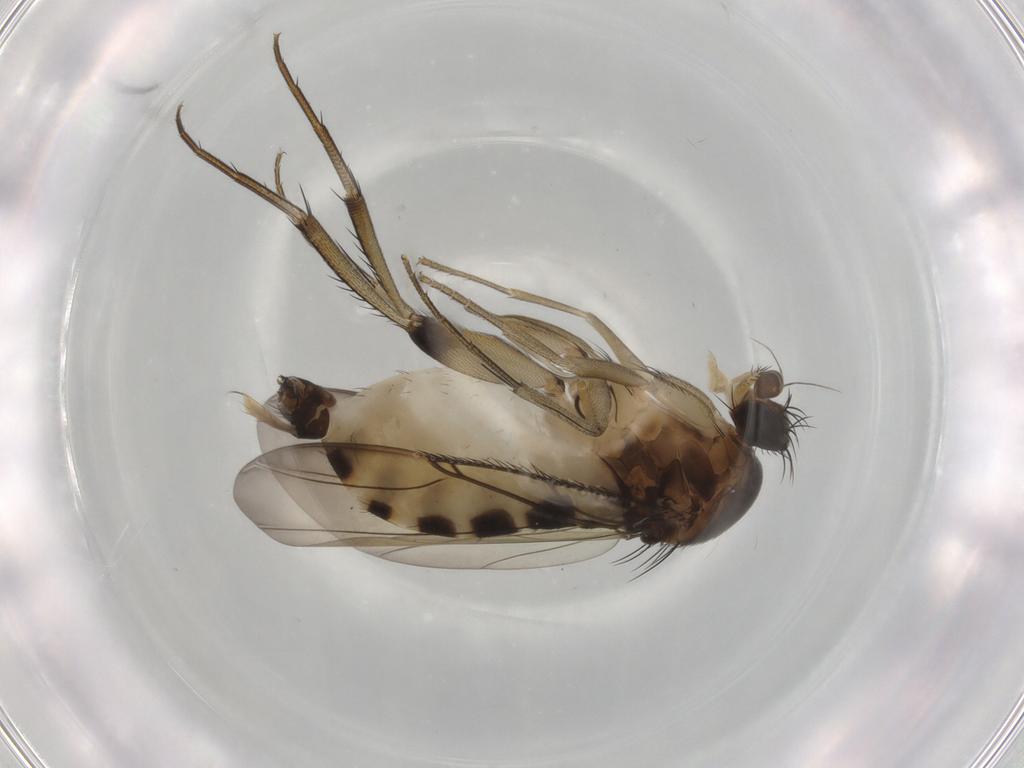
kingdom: Animalia
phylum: Arthropoda
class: Insecta
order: Diptera
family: Phoridae
